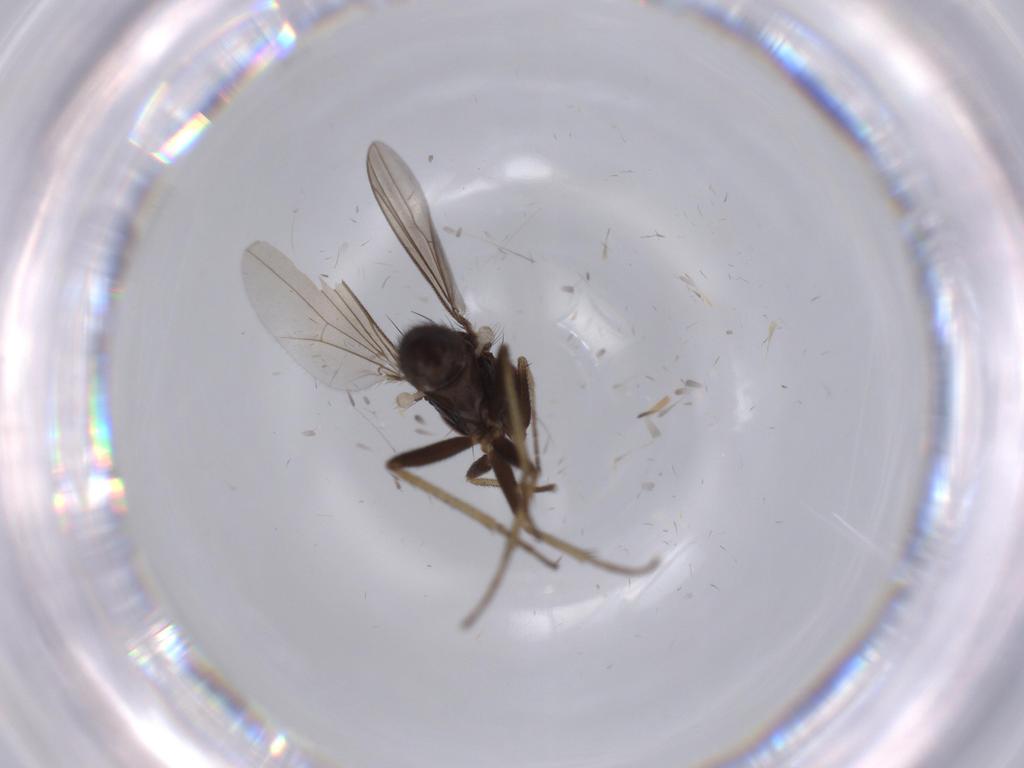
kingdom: Animalia
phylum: Arthropoda
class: Insecta
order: Diptera
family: Dolichopodidae
